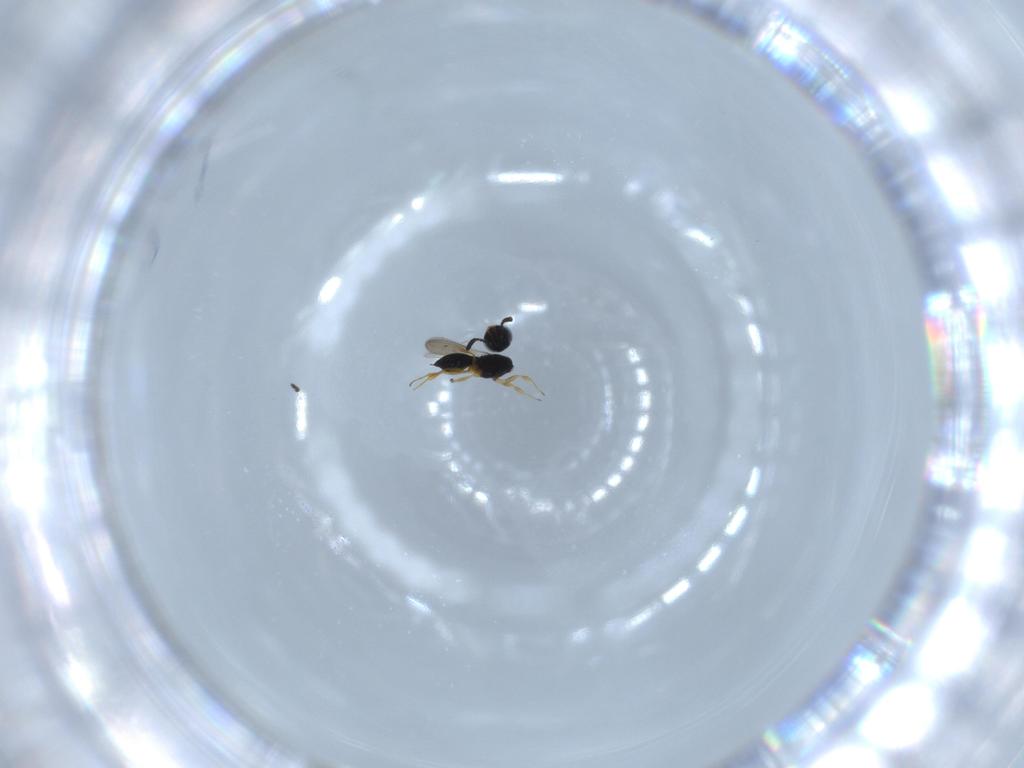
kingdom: Animalia
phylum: Arthropoda
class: Insecta
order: Hymenoptera
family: Scelionidae
